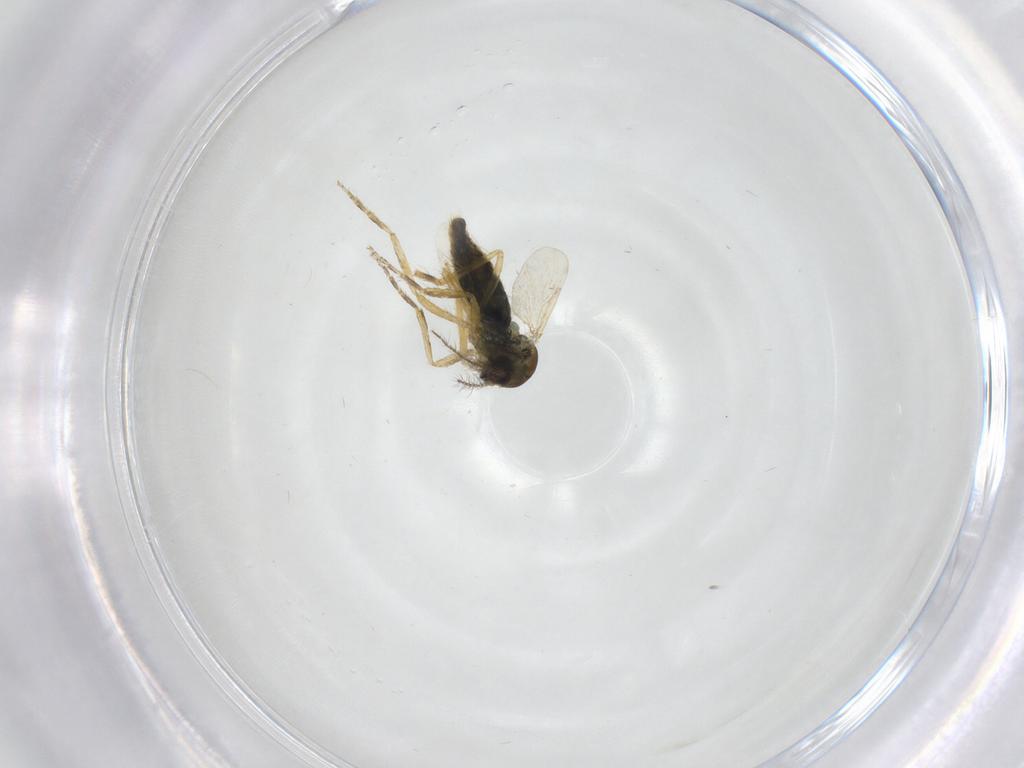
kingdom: Animalia
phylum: Arthropoda
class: Insecta
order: Diptera
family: Ceratopogonidae
